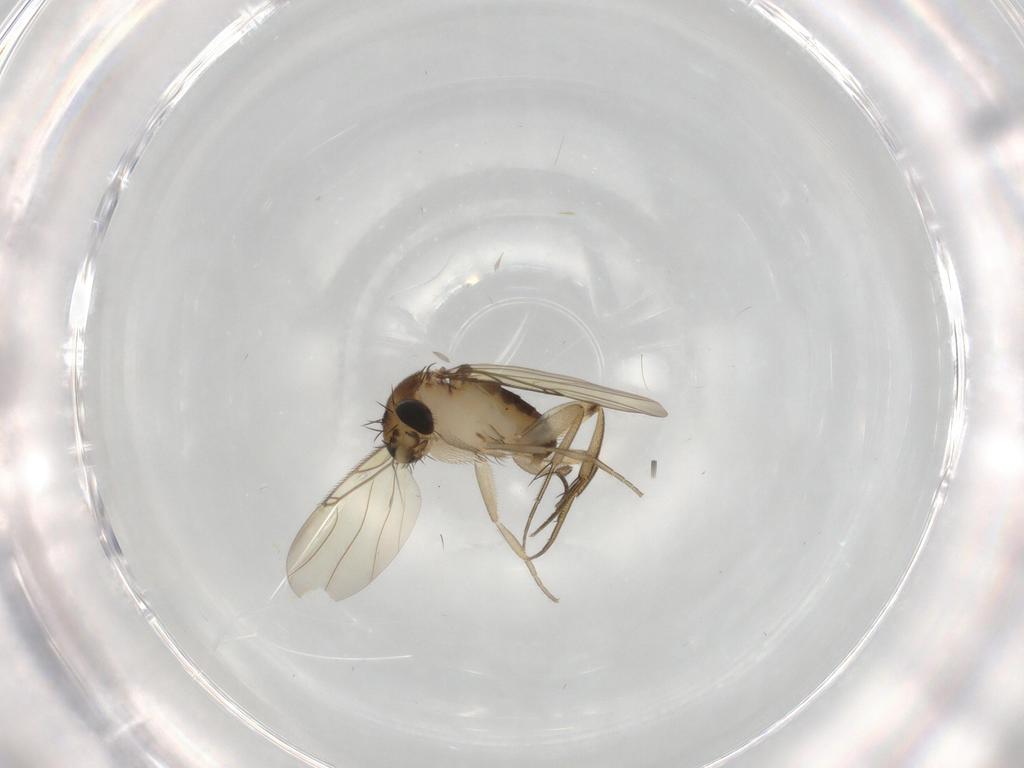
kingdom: Animalia
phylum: Arthropoda
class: Insecta
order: Diptera
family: Phoridae
